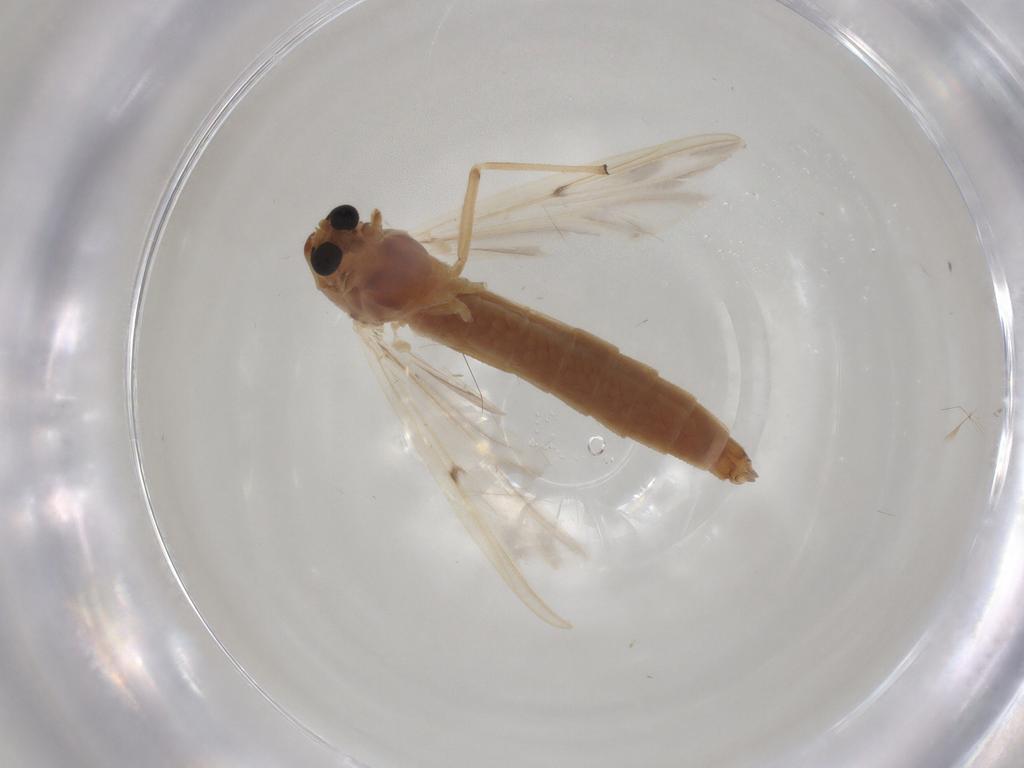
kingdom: Animalia
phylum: Arthropoda
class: Insecta
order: Diptera
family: Chironomidae
